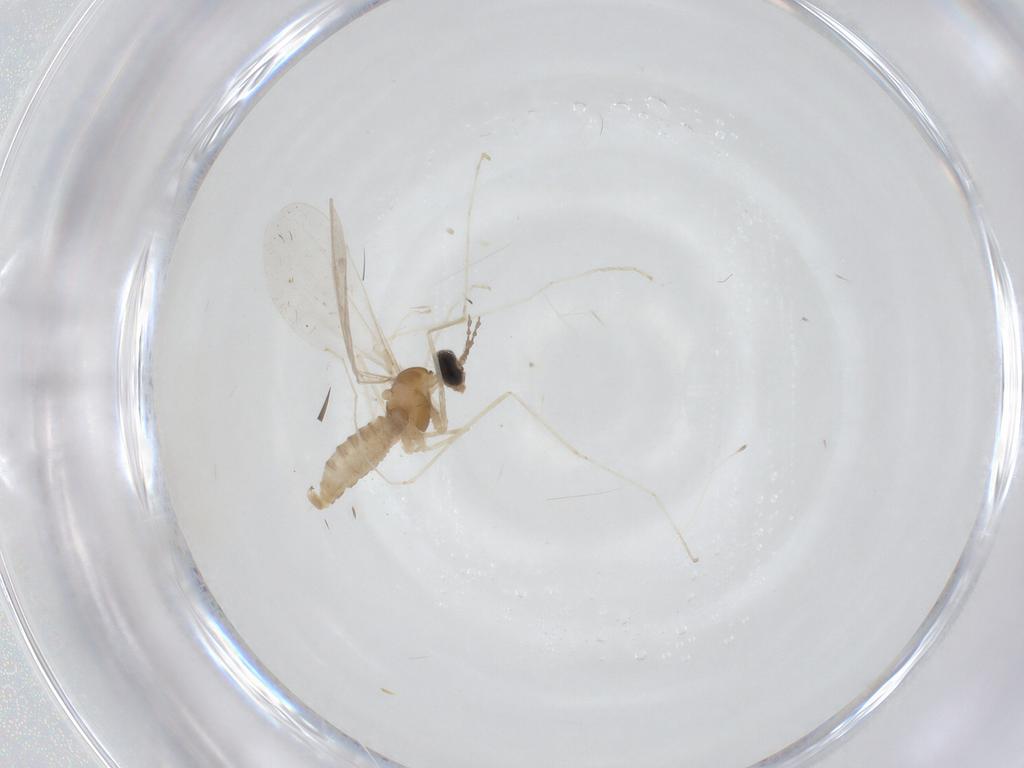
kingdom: Animalia
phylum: Arthropoda
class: Insecta
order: Diptera
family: Cecidomyiidae
